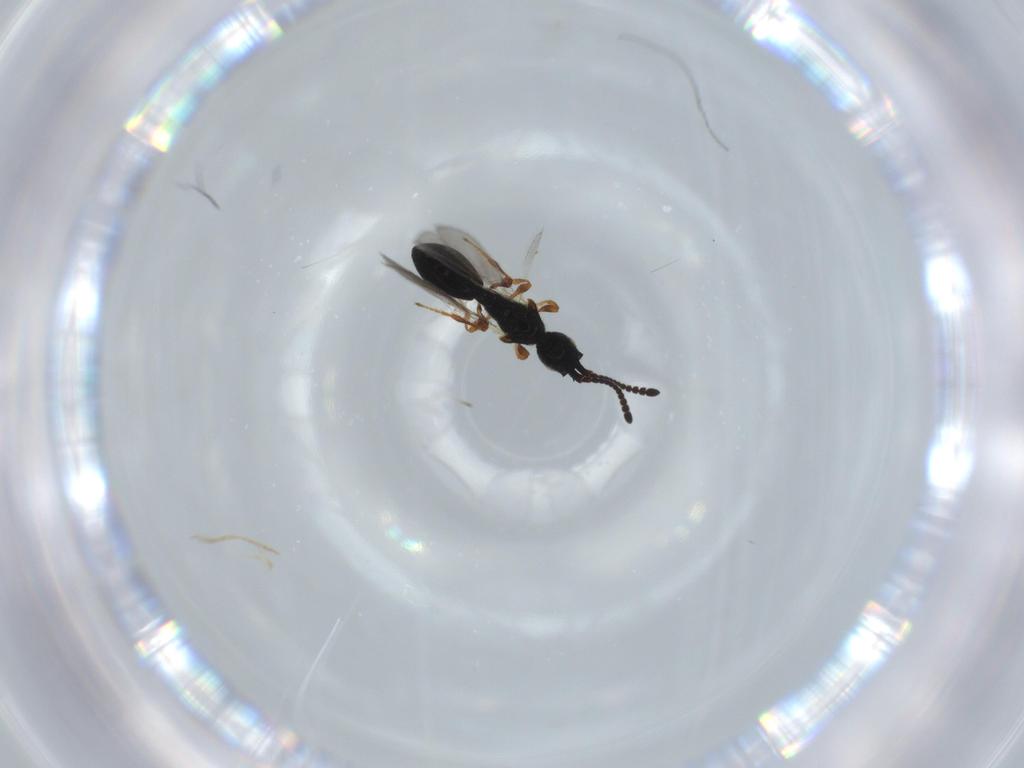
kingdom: Animalia
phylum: Arthropoda
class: Insecta
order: Hymenoptera
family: Diapriidae
